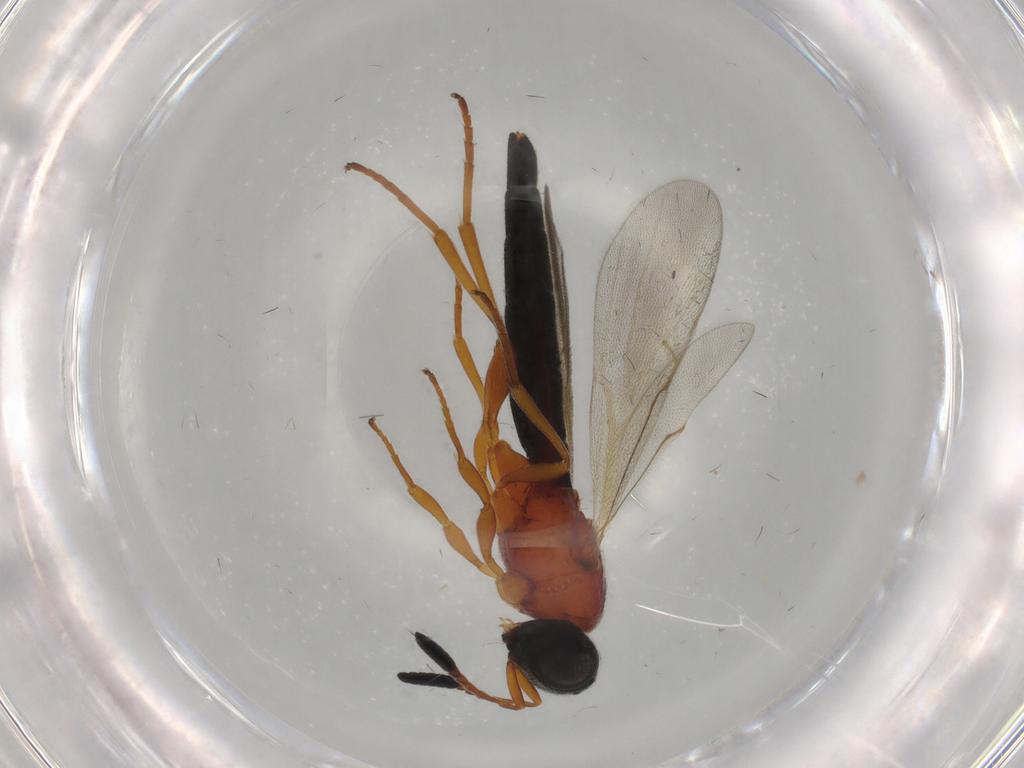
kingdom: Animalia
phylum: Arthropoda
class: Insecta
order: Hymenoptera
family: Scelionidae
